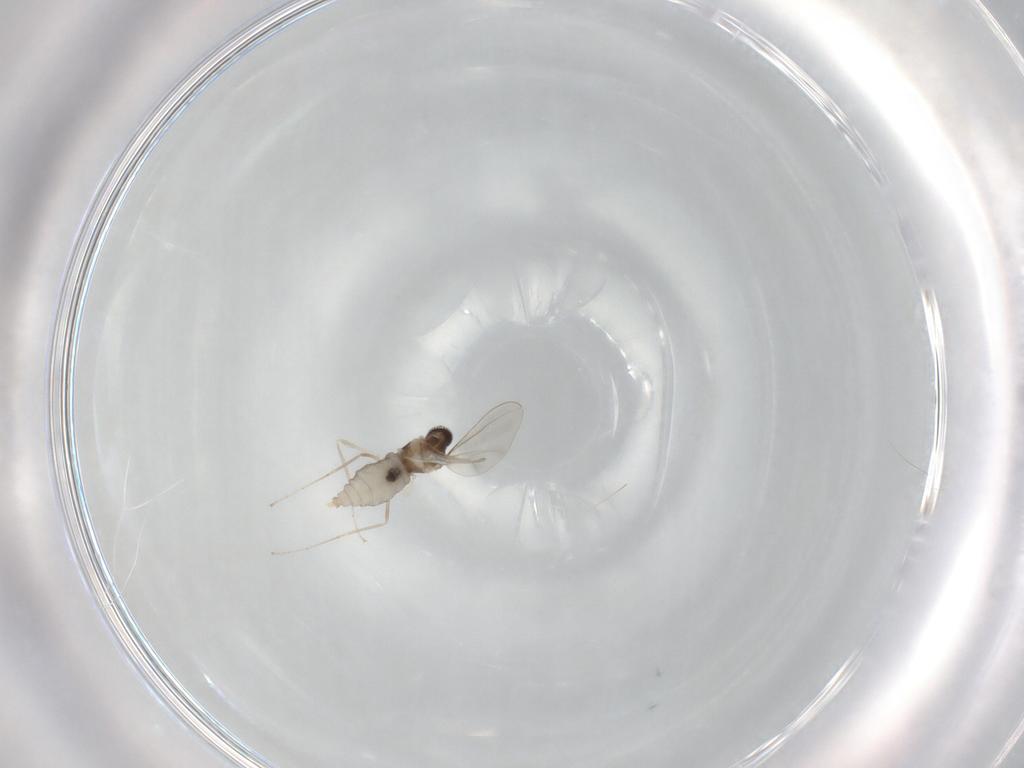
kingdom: Animalia
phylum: Arthropoda
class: Insecta
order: Diptera
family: Cecidomyiidae
